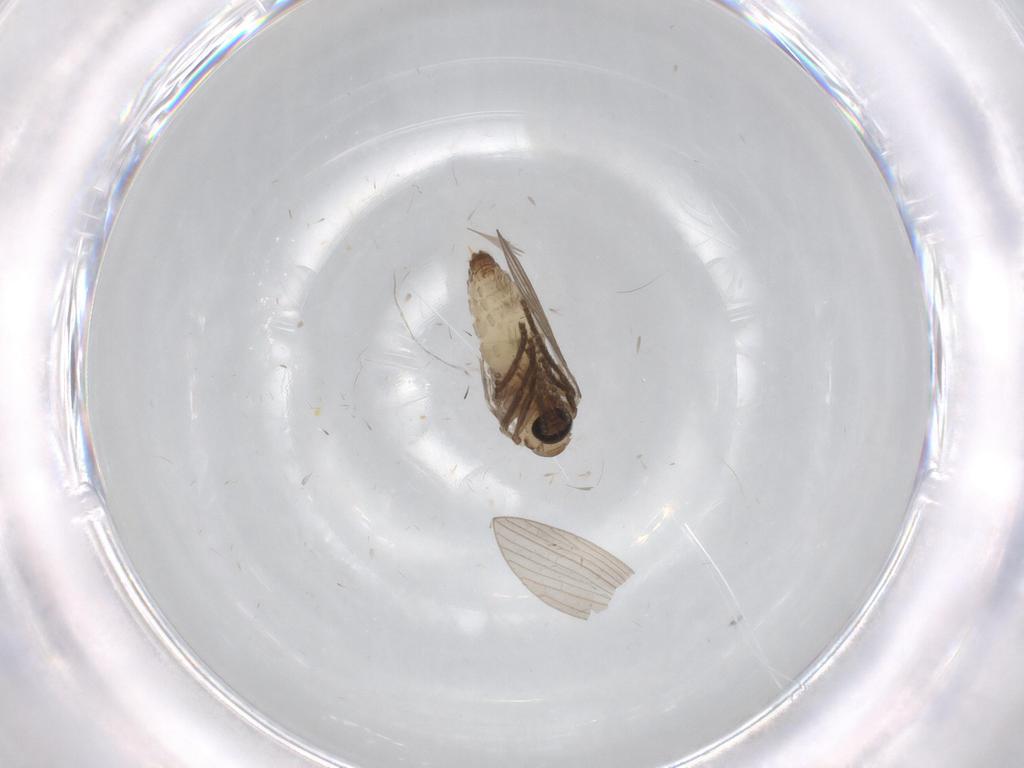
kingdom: Animalia
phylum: Arthropoda
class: Insecta
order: Diptera
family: Psychodidae
